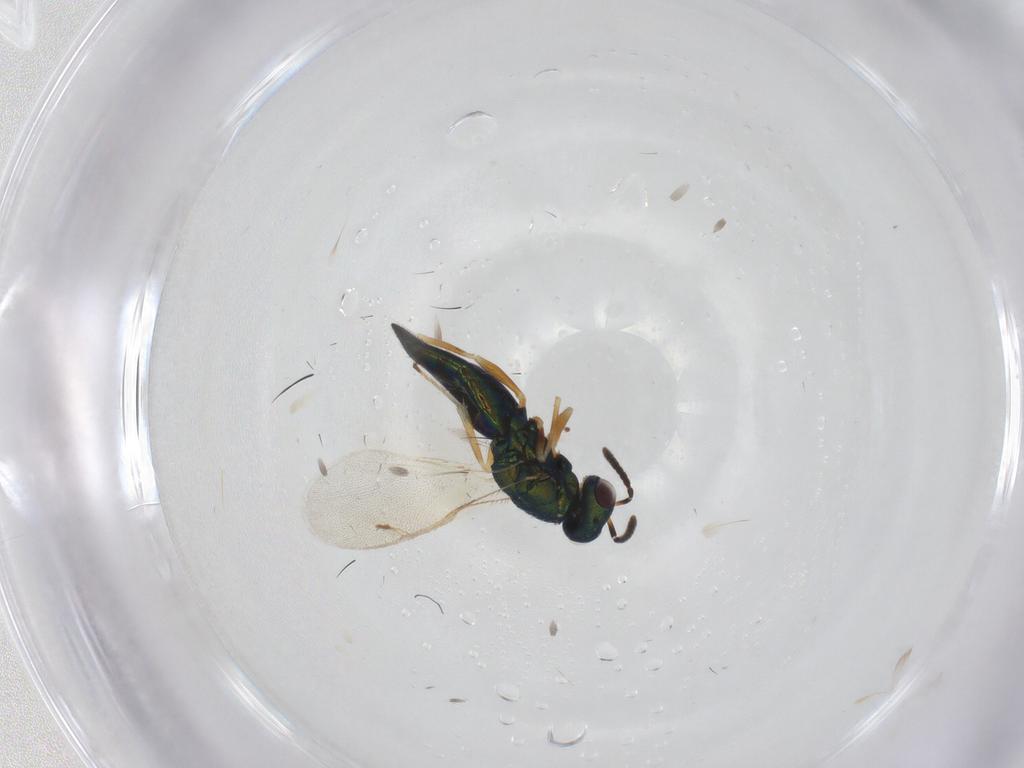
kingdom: Animalia
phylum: Arthropoda
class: Insecta
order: Hymenoptera
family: Pteromalidae
